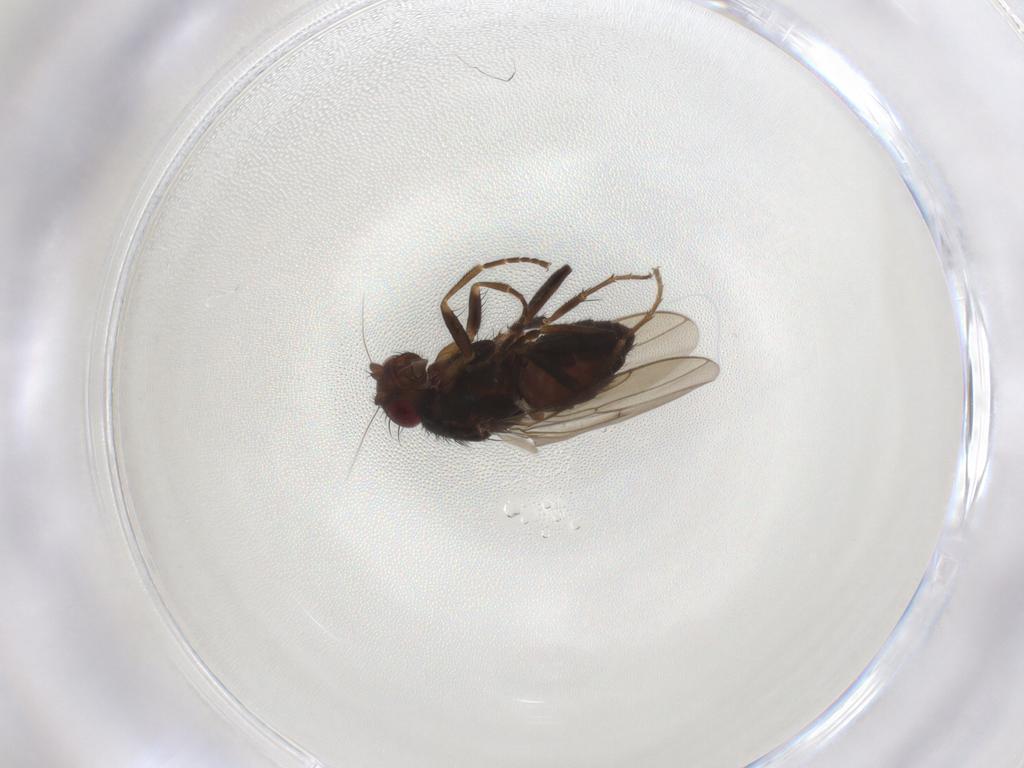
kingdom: Animalia
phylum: Arthropoda
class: Insecta
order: Diptera
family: Sphaeroceridae
